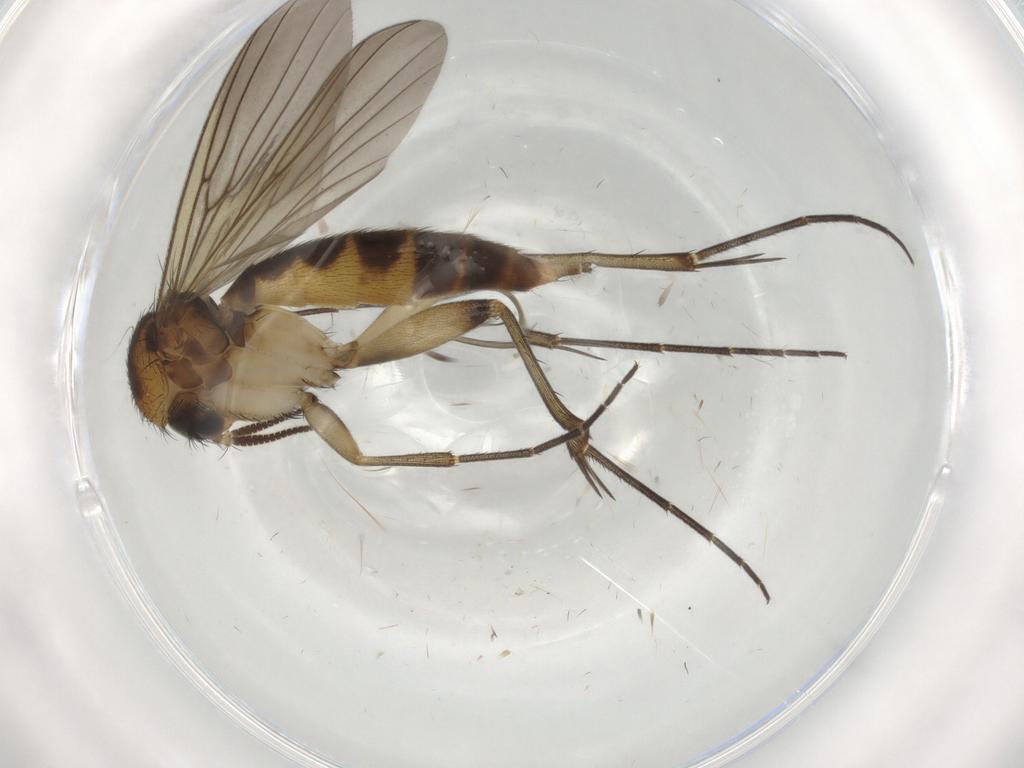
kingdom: Animalia
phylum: Arthropoda
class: Insecta
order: Diptera
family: Mycetophilidae
